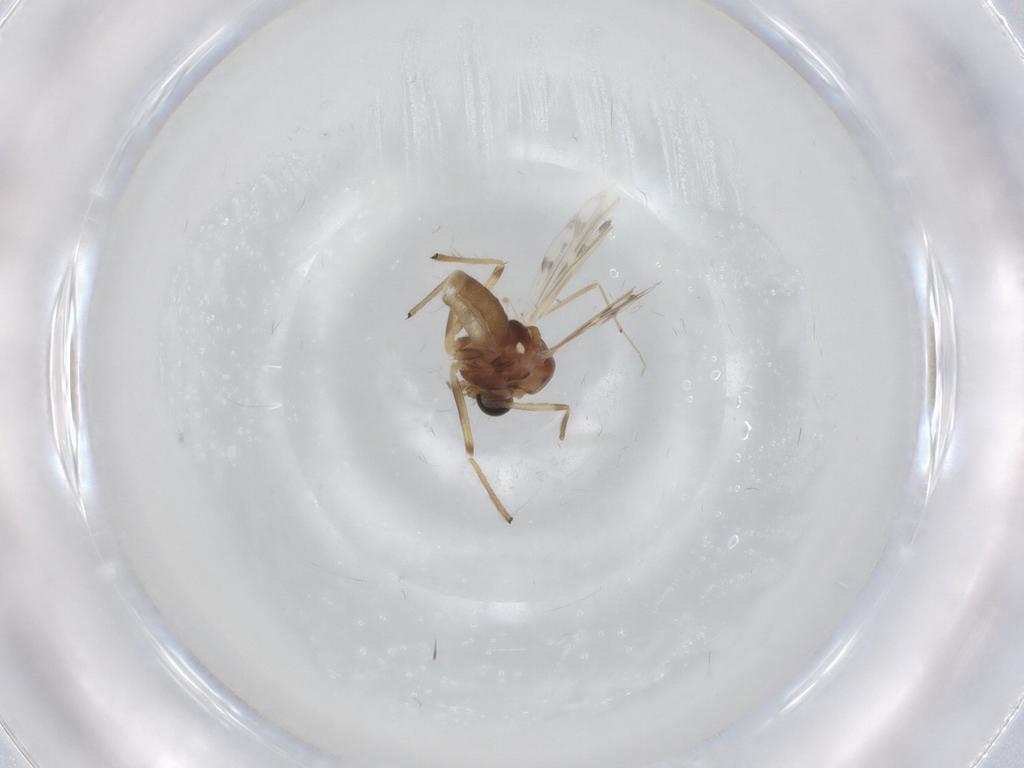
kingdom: Animalia
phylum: Arthropoda
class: Insecta
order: Diptera
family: Chironomidae
